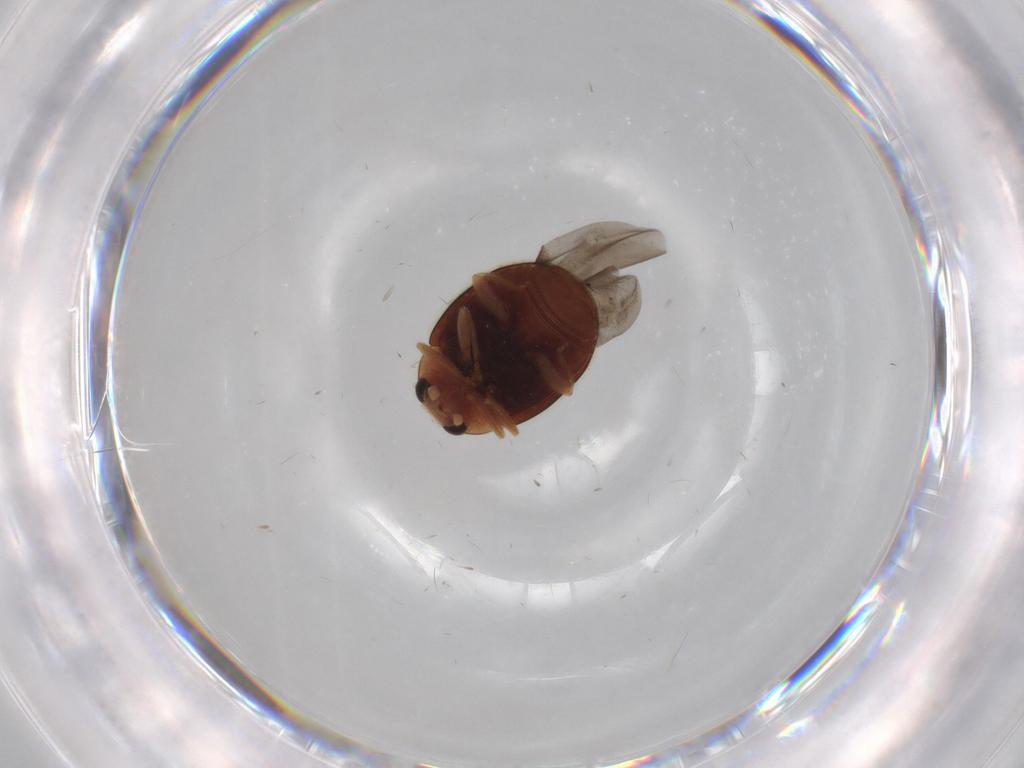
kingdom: Animalia
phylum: Arthropoda
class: Insecta
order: Coleoptera
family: Coccinellidae
